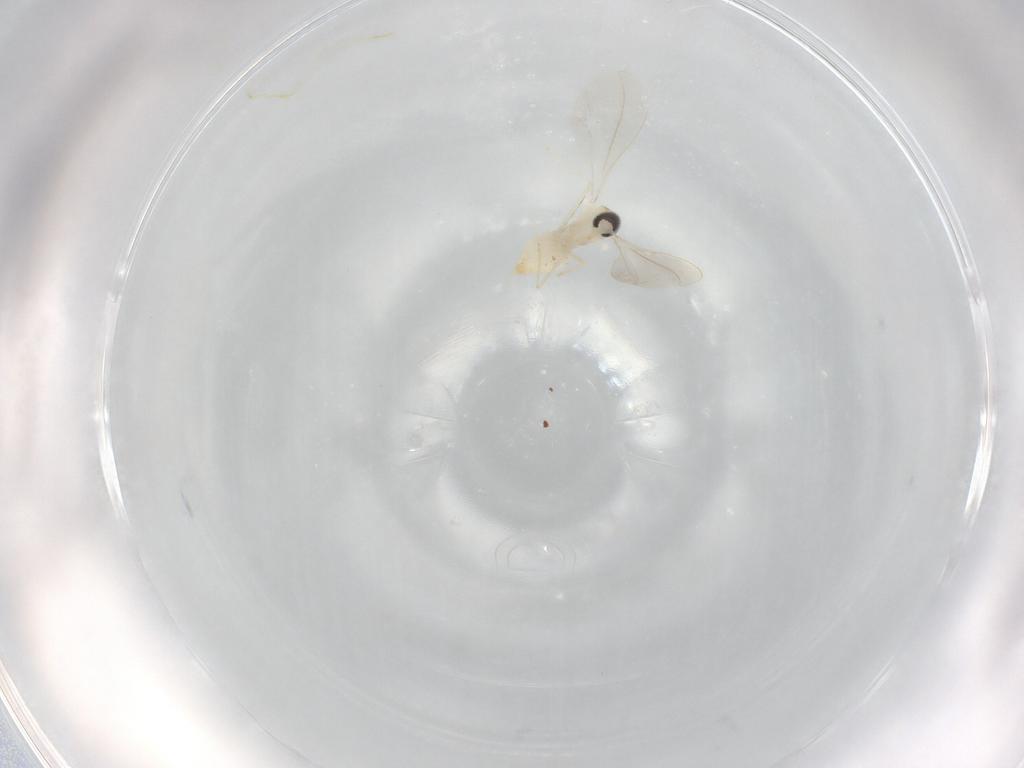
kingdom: Animalia
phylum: Arthropoda
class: Insecta
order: Diptera
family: Cecidomyiidae
